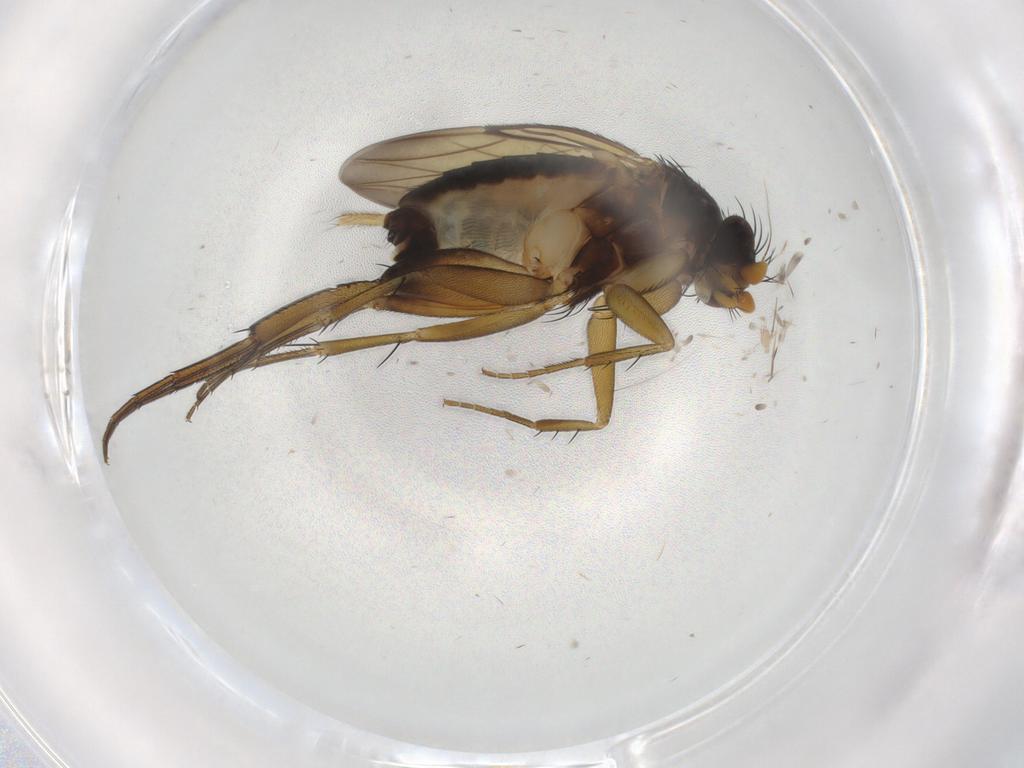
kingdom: Animalia
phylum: Arthropoda
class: Insecta
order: Diptera
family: Phoridae
